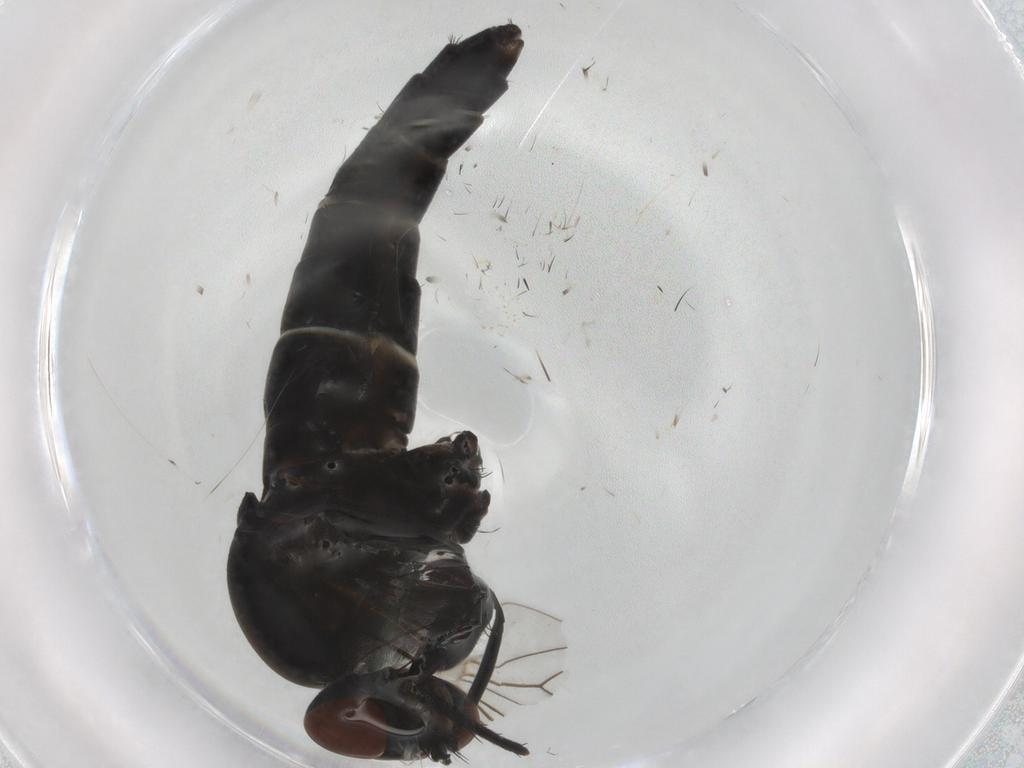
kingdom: Animalia
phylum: Arthropoda
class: Insecta
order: Diptera
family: Therevidae
